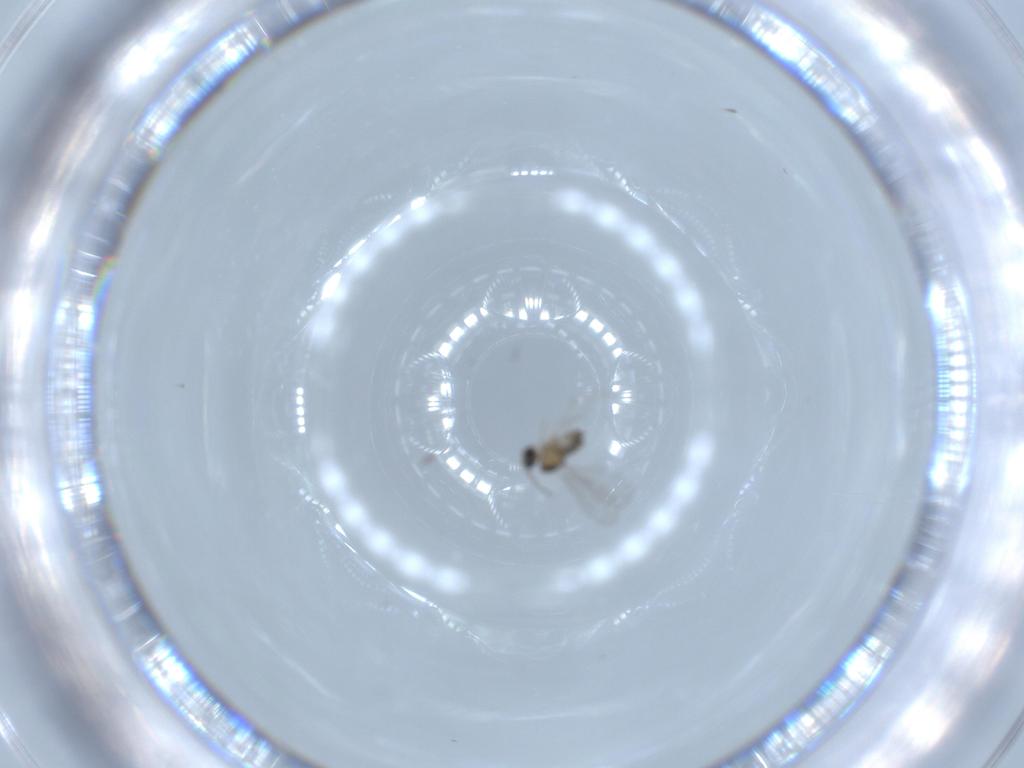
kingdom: Animalia
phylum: Arthropoda
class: Insecta
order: Diptera
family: Cecidomyiidae
